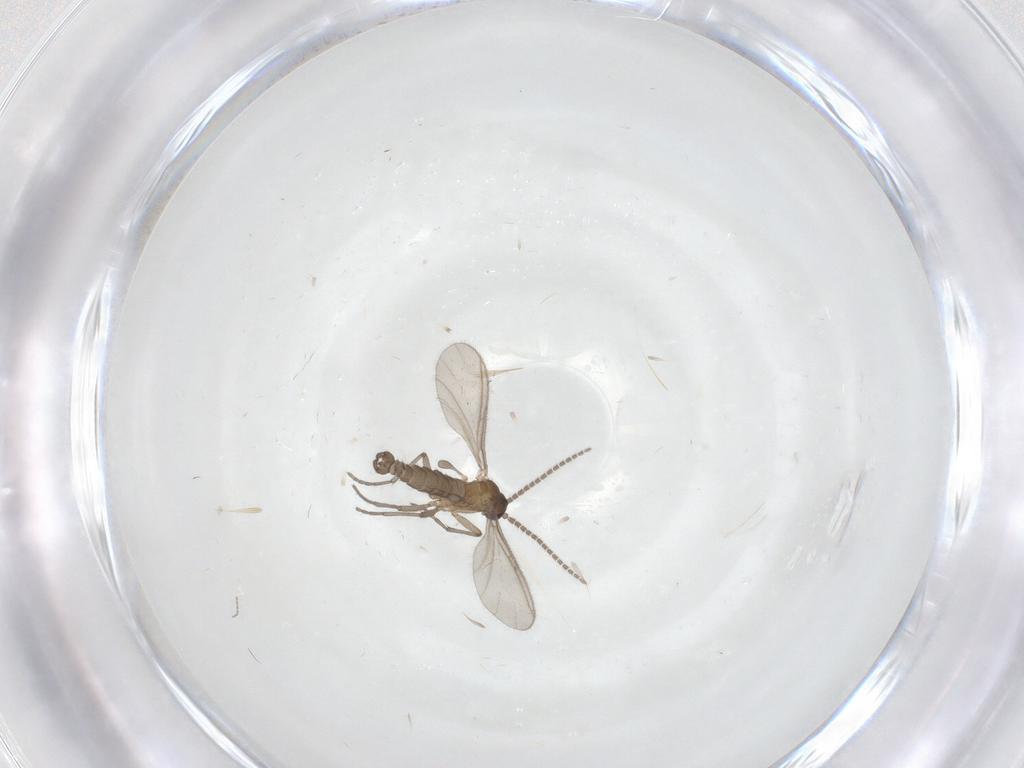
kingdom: Animalia
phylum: Arthropoda
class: Insecta
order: Diptera
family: Sciaridae
